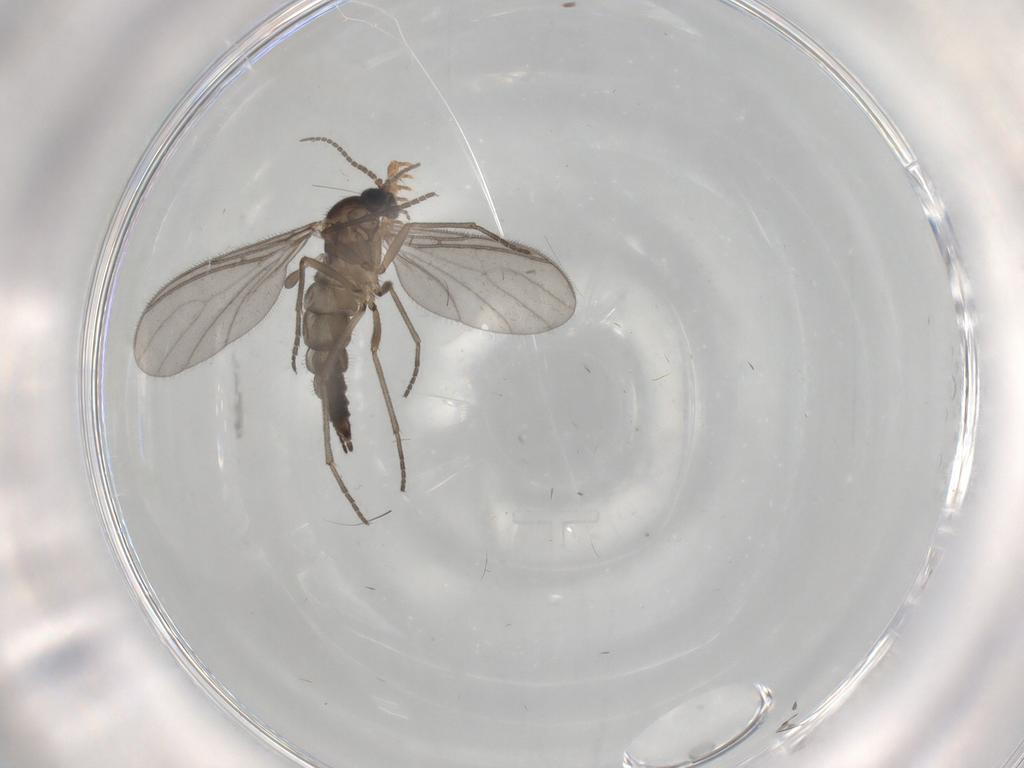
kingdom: Animalia
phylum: Arthropoda
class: Insecta
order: Diptera
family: Sciaridae
